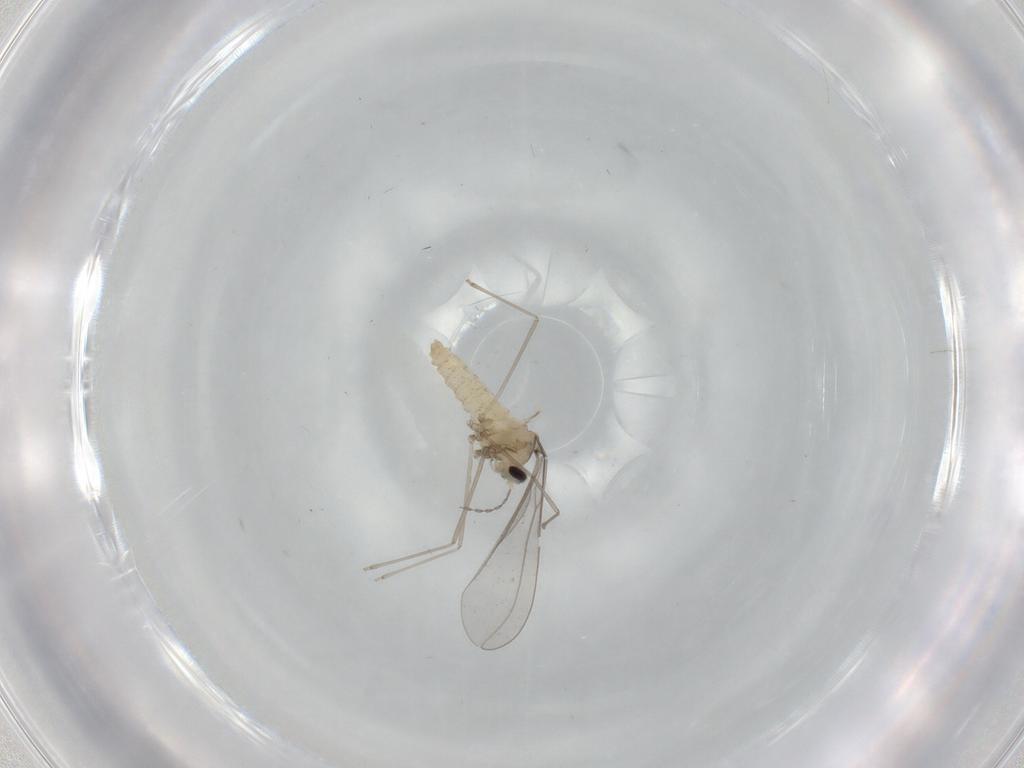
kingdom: Animalia
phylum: Arthropoda
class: Insecta
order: Diptera
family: Cecidomyiidae
